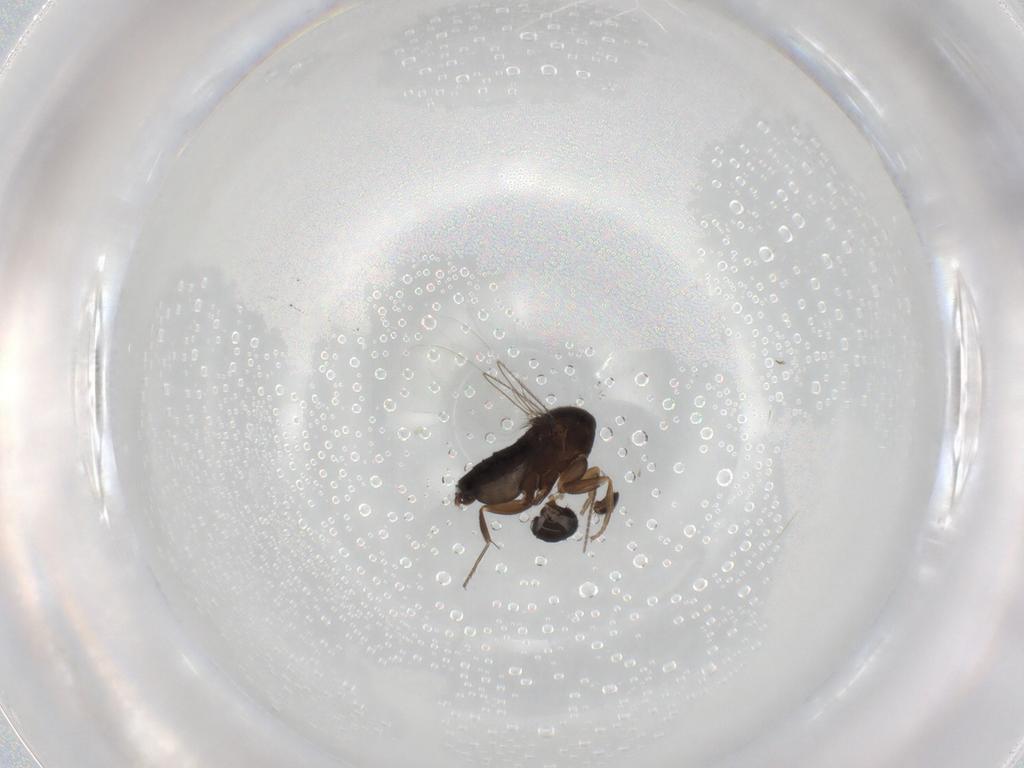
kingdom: Animalia
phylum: Arthropoda
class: Insecta
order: Diptera
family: Phoridae
